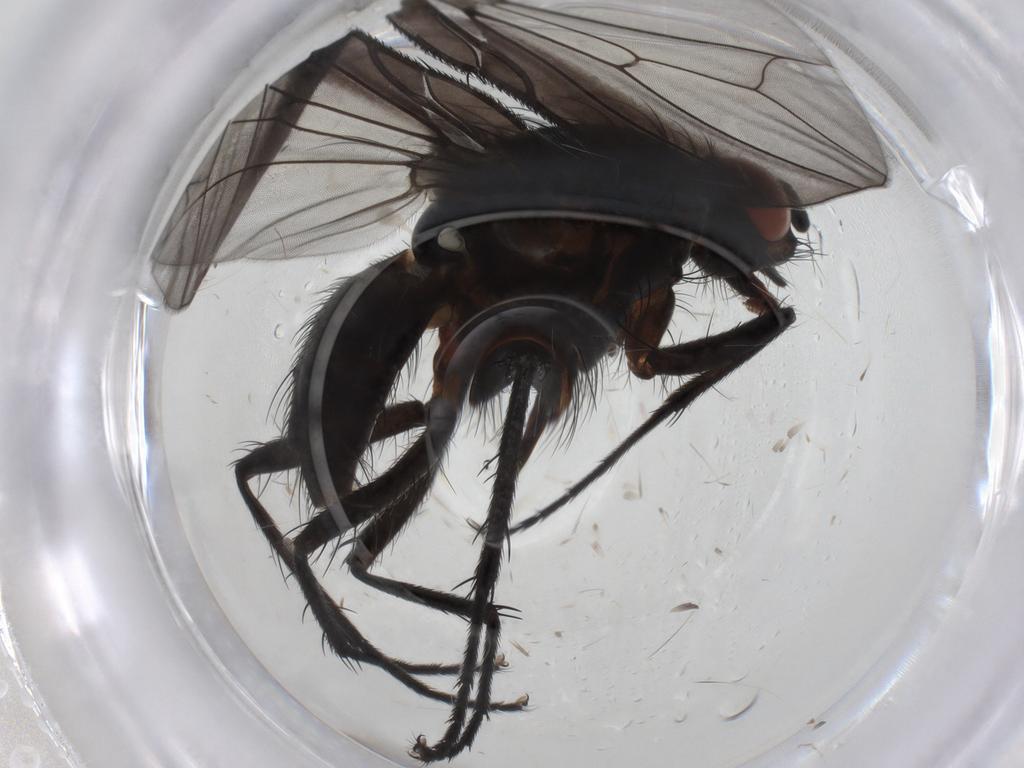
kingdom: Animalia
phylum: Arthropoda
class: Insecta
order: Diptera
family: Anthomyiidae
